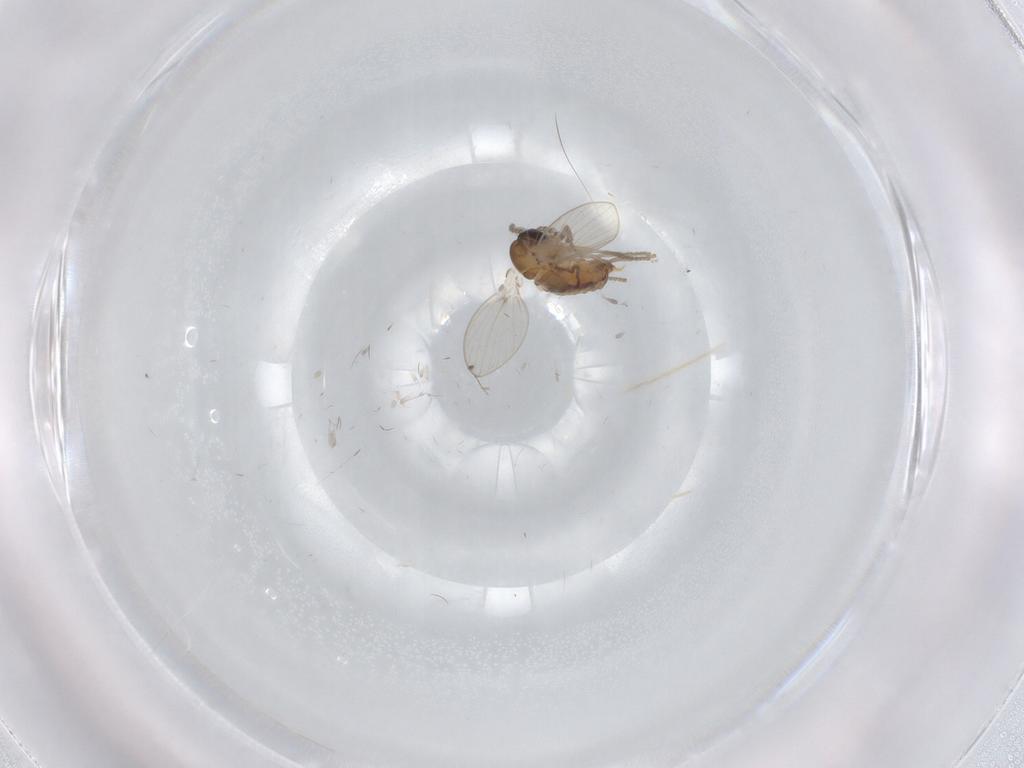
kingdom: Animalia
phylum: Arthropoda
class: Insecta
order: Diptera
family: Psychodidae
